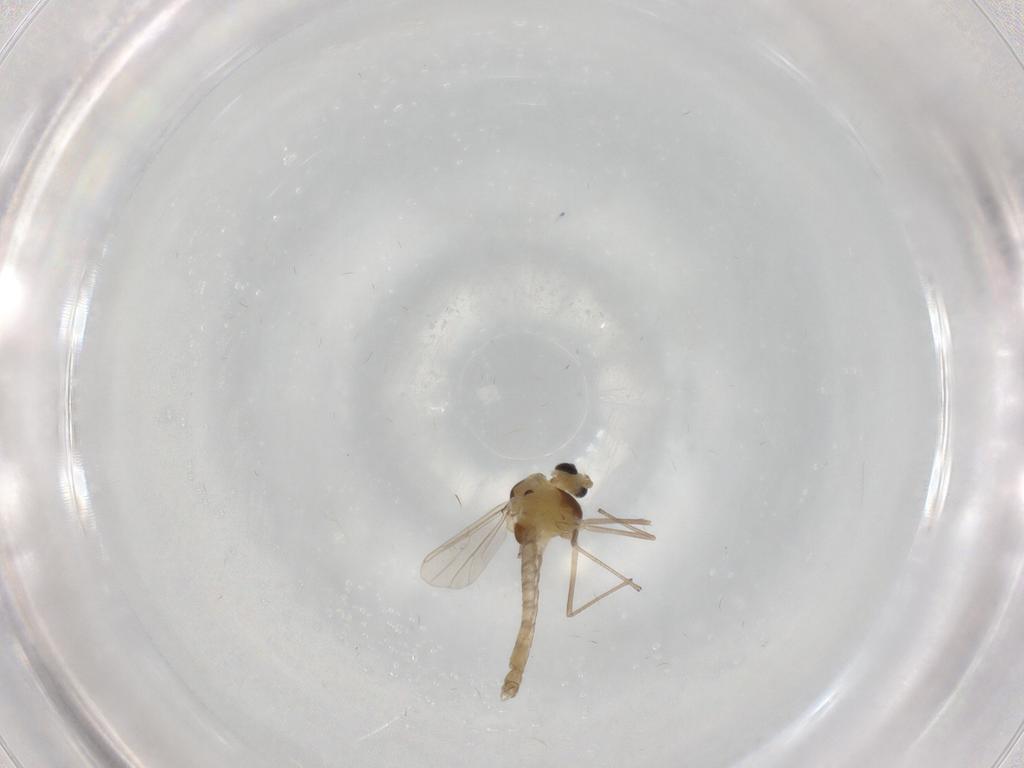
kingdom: Animalia
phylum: Arthropoda
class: Insecta
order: Diptera
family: Chironomidae
